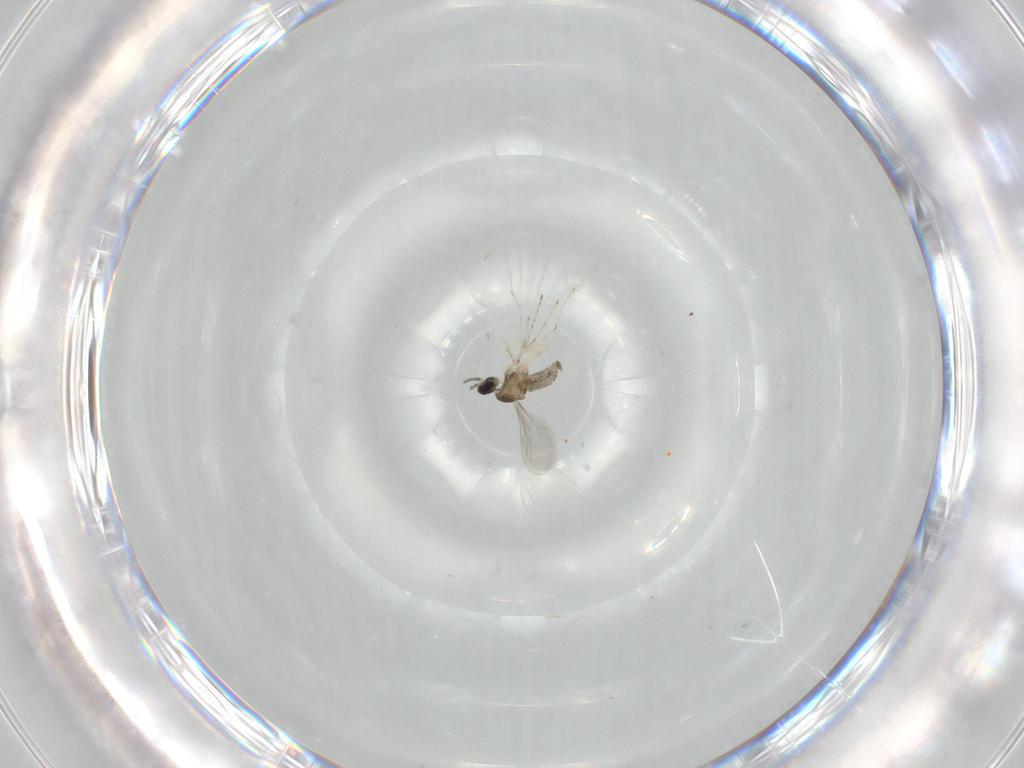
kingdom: Animalia
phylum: Arthropoda
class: Insecta
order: Diptera
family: Cecidomyiidae
